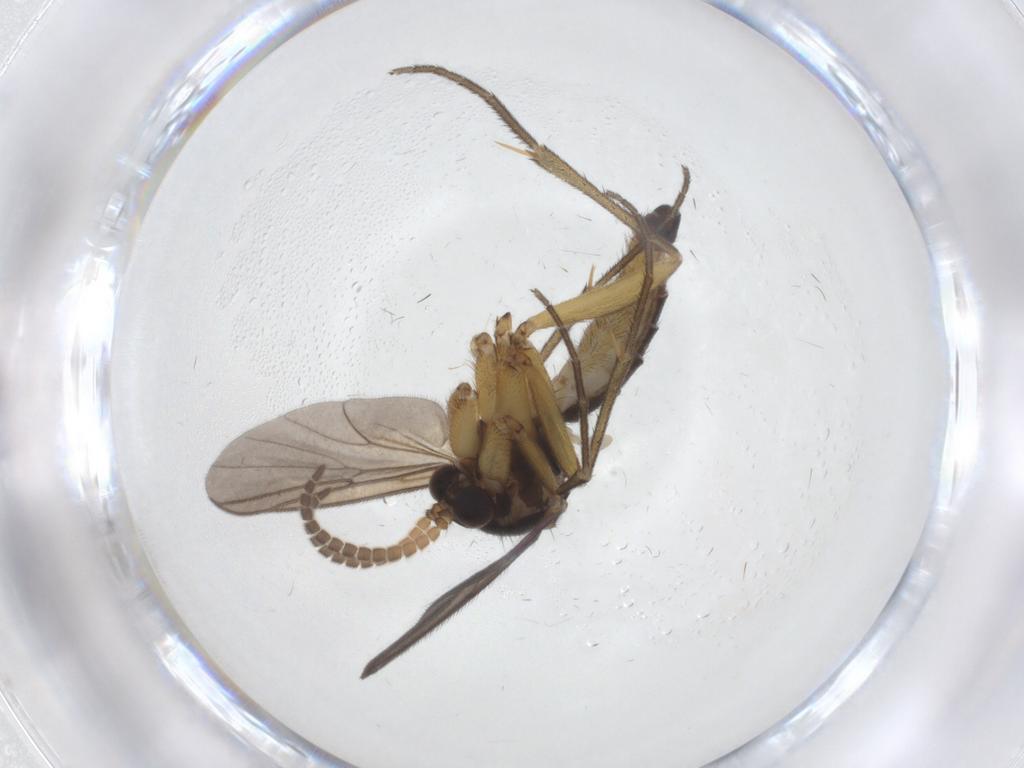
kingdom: Animalia
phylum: Arthropoda
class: Insecta
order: Diptera
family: Mycetophilidae
